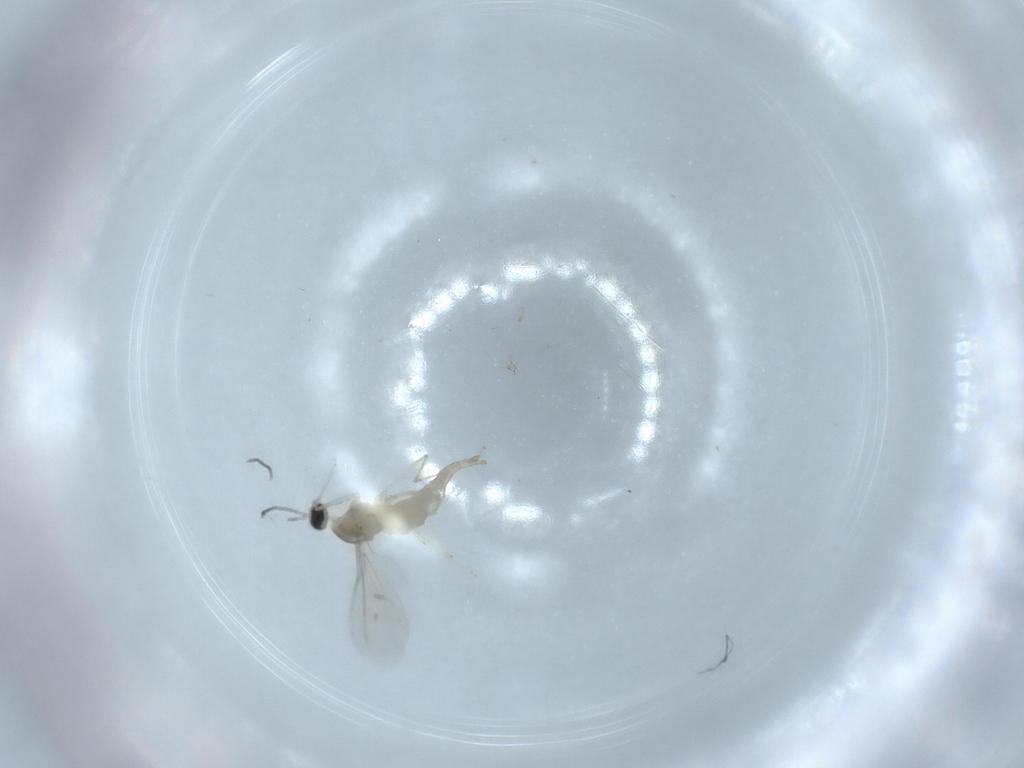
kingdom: Animalia
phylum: Arthropoda
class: Insecta
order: Diptera
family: Cecidomyiidae
